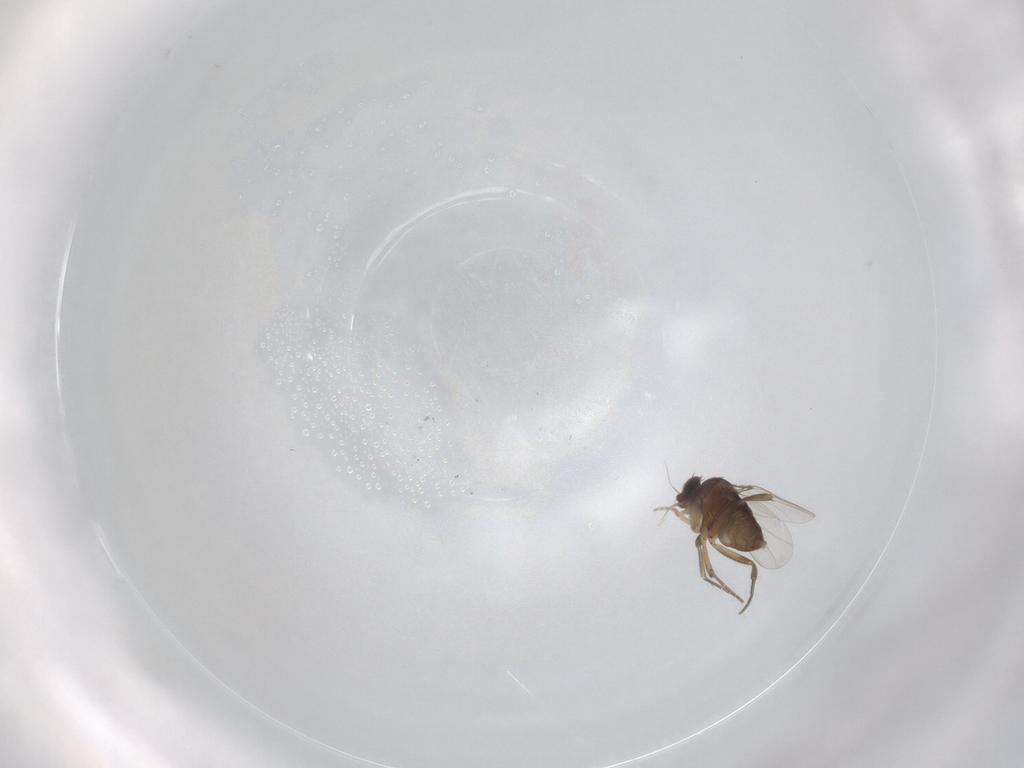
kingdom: Animalia
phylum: Arthropoda
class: Insecta
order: Diptera
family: Phoridae
